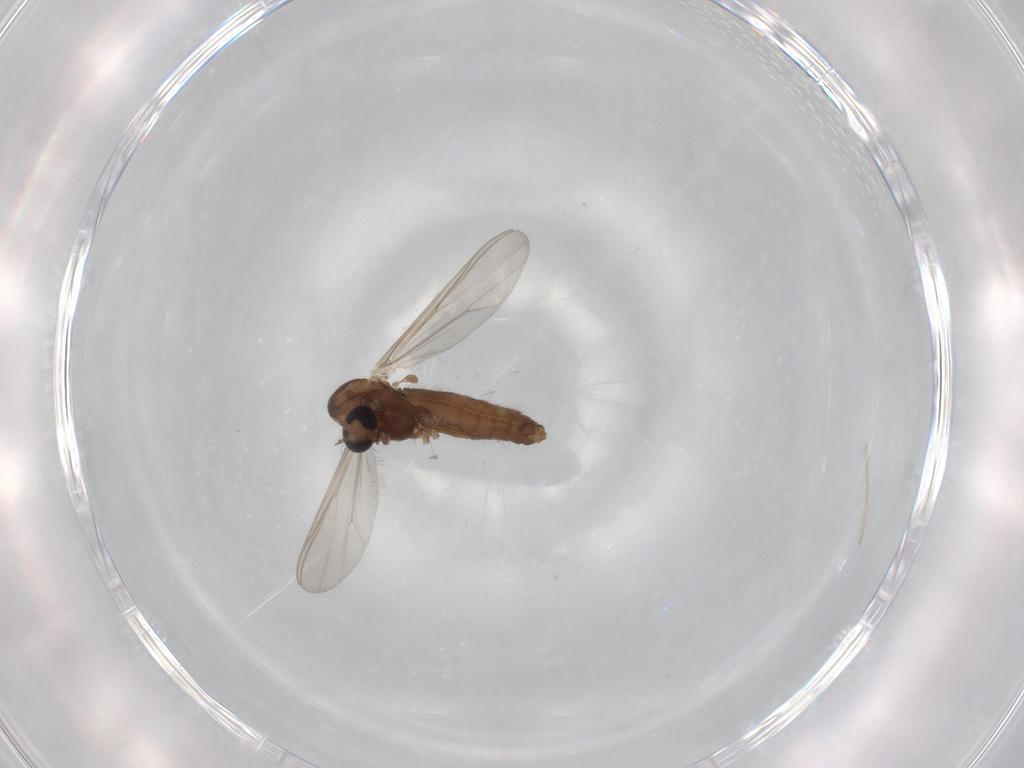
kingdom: Animalia
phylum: Arthropoda
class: Insecta
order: Diptera
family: Chironomidae
